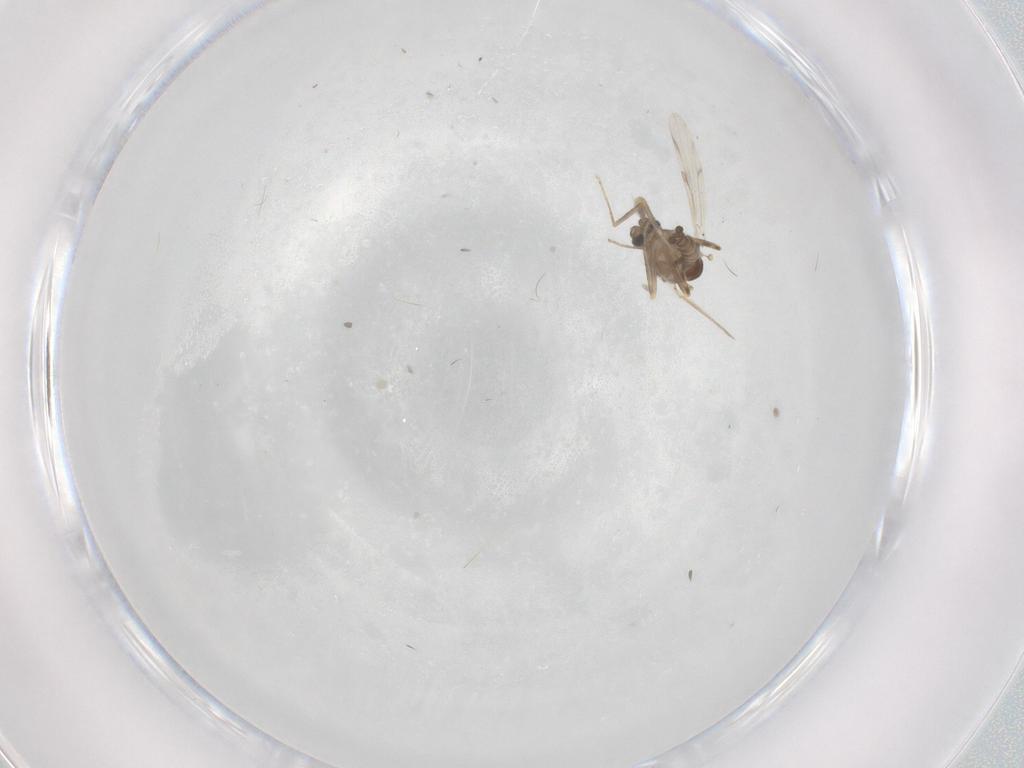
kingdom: Animalia
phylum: Arthropoda
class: Insecta
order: Diptera
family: Ceratopogonidae
